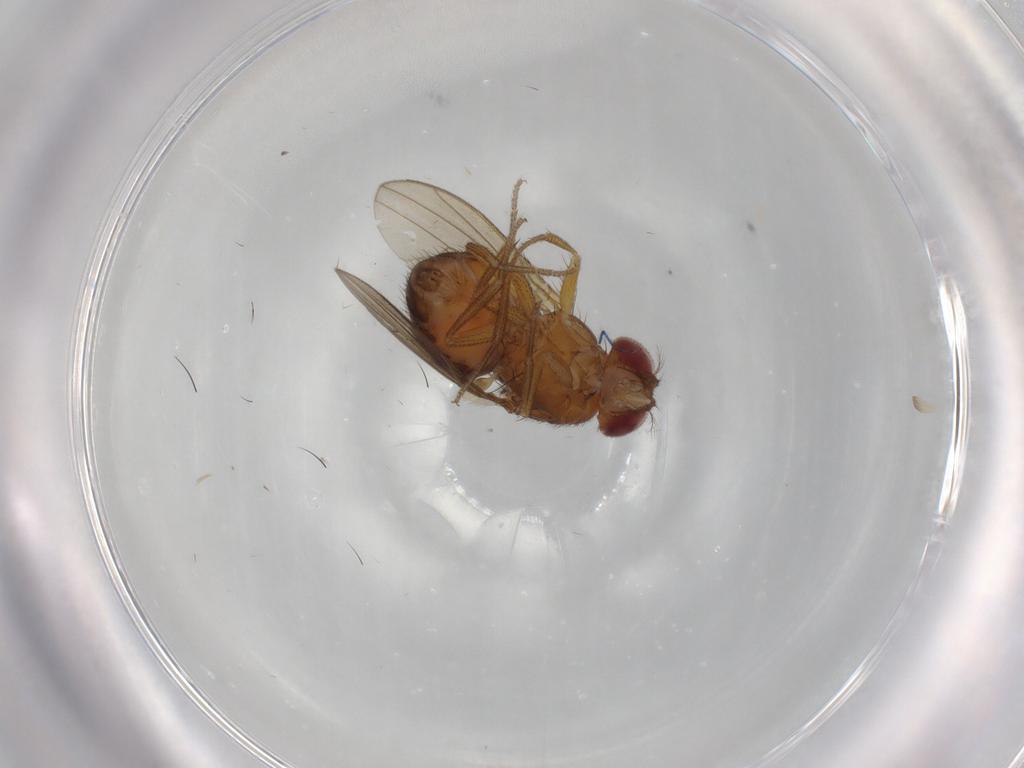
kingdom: Animalia
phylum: Arthropoda
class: Insecta
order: Diptera
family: Drosophilidae
